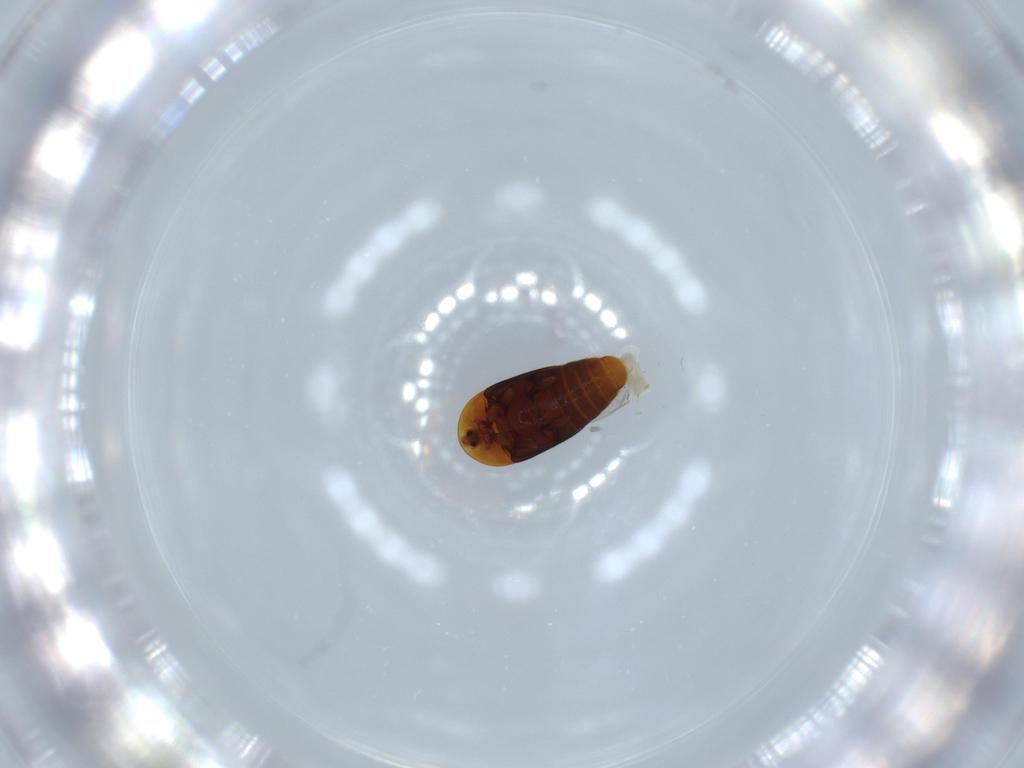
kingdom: Animalia
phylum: Arthropoda
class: Insecta
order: Coleoptera
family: Corylophidae
